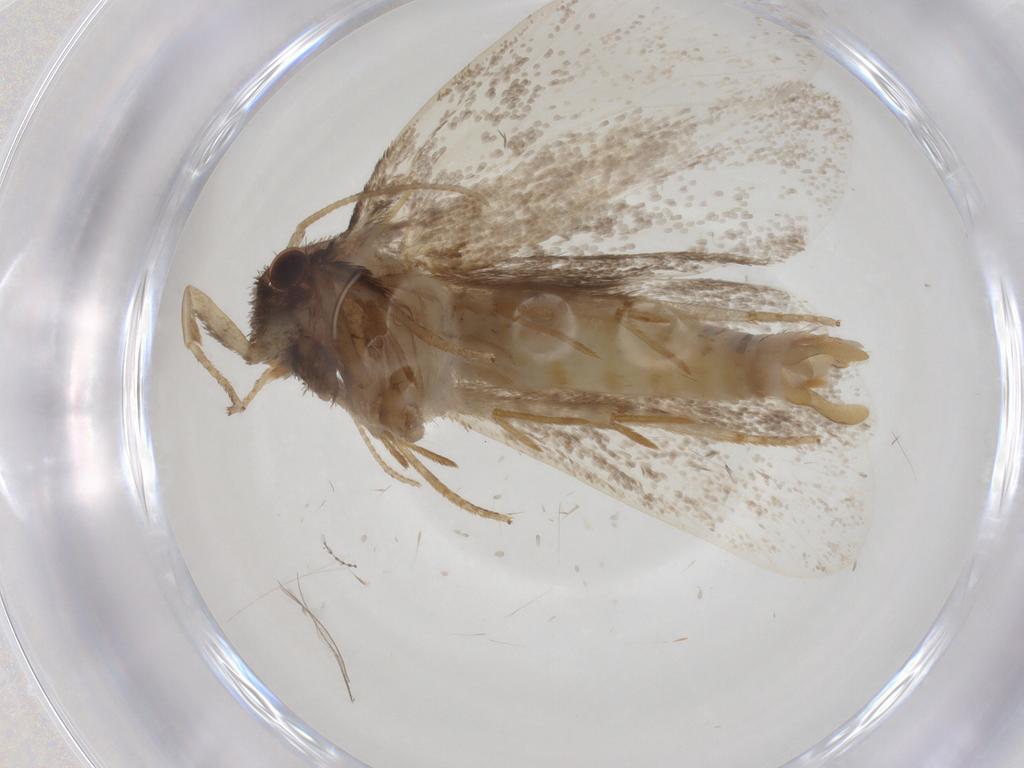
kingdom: Animalia
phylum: Arthropoda
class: Insecta
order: Lepidoptera
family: Tineidae
